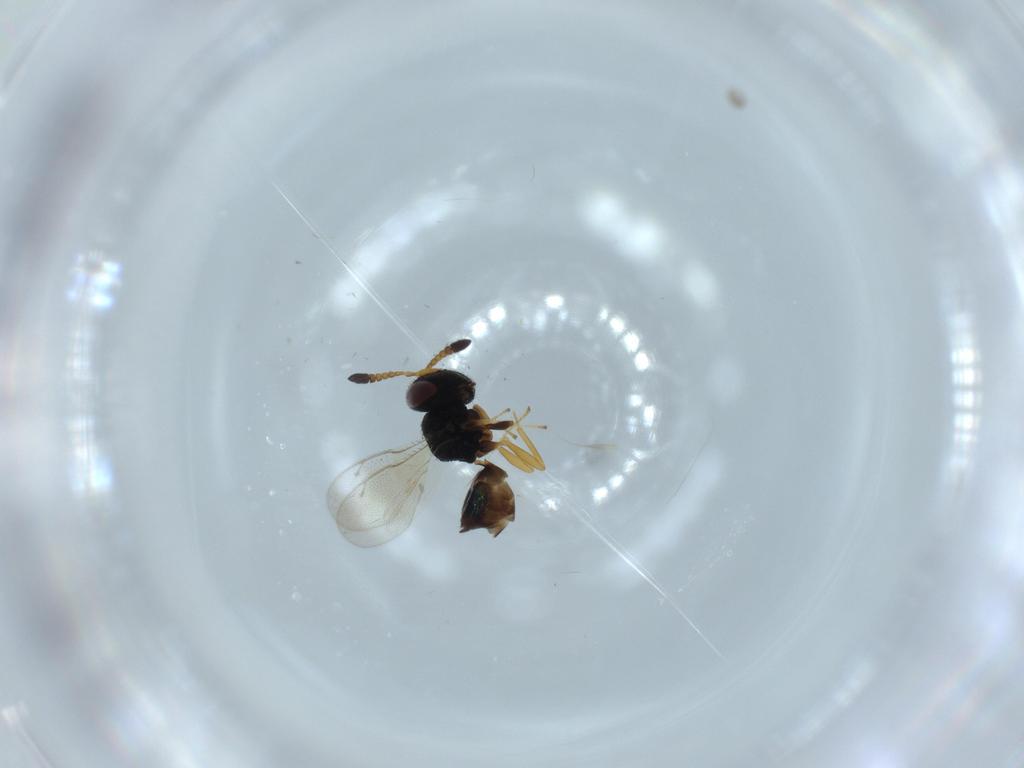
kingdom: Animalia
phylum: Arthropoda
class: Insecta
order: Hymenoptera
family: Pteromalidae
